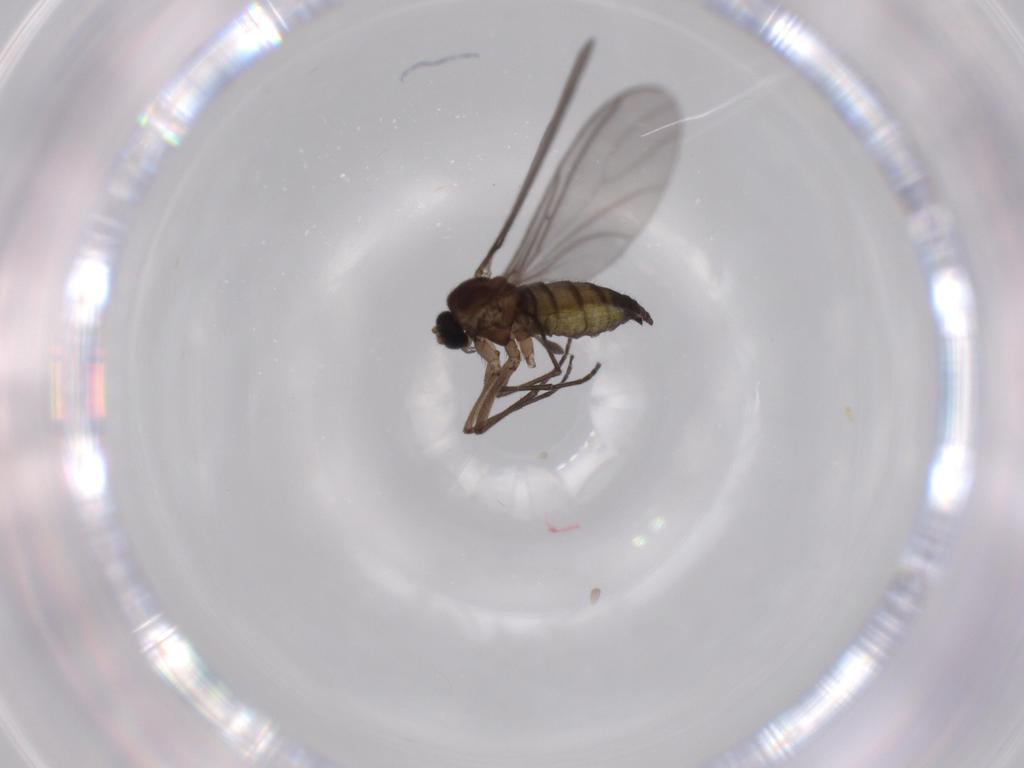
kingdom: Animalia
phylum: Arthropoda
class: Insecta
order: Diptera
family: Sciaridae
